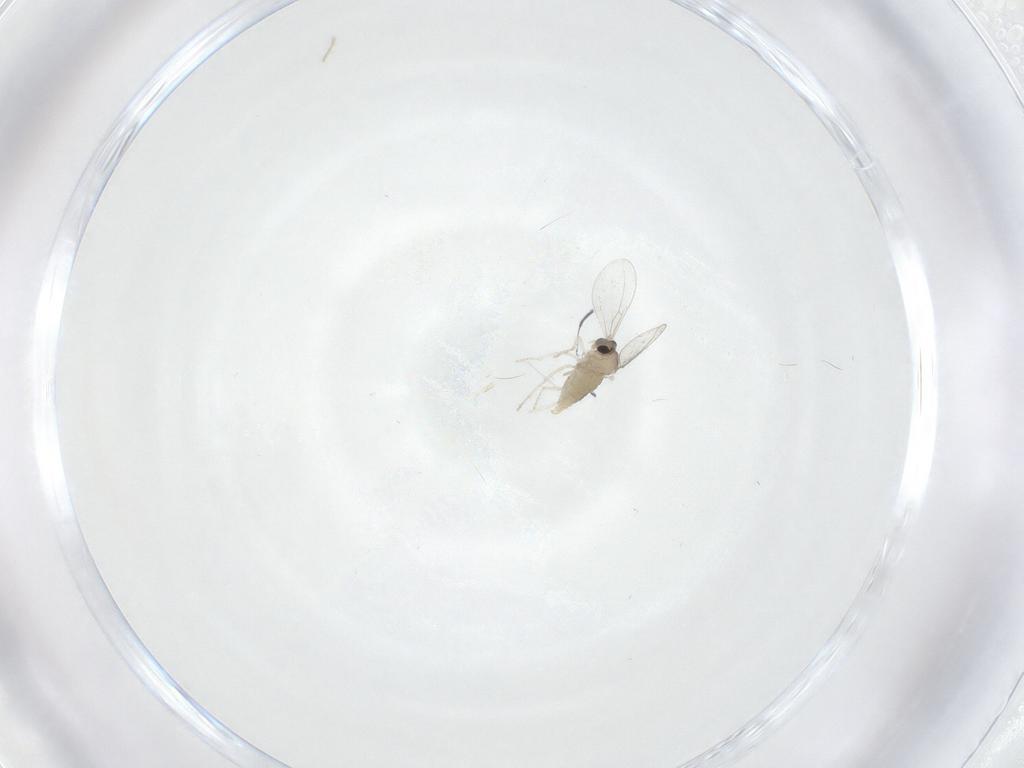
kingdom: Animalia
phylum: Arthropoda
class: Insecta
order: Diptera
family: Cecidomyiidae
